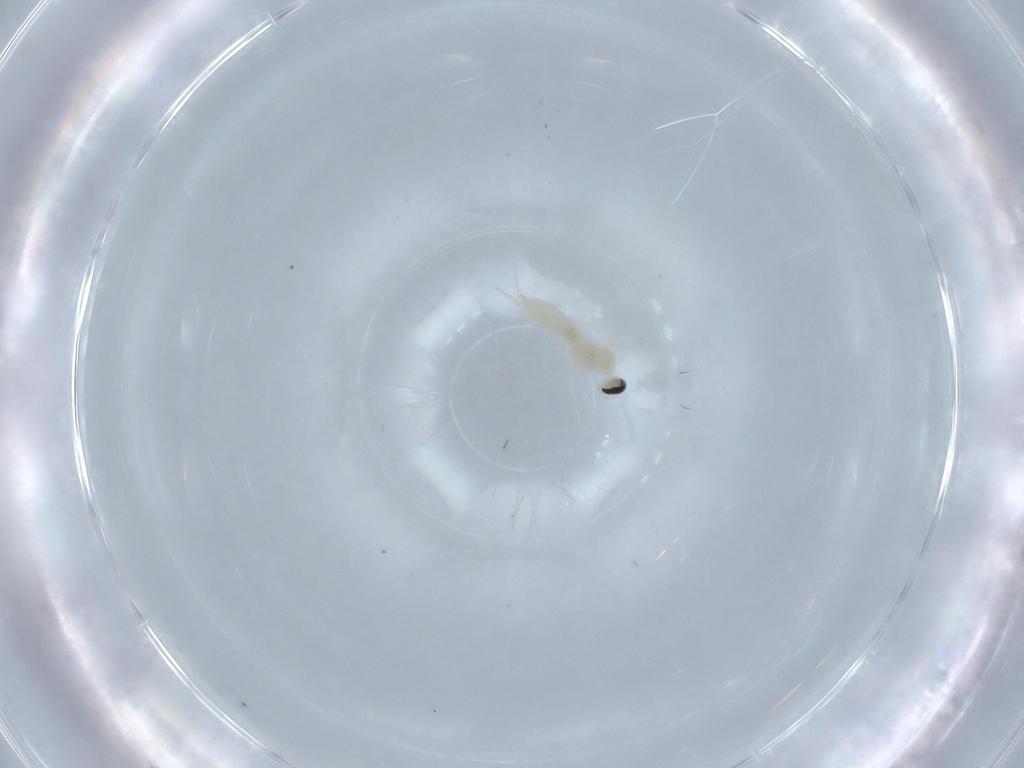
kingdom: Animalia
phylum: Arthropoda
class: Insecta
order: Diptera
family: Cecidomyiidae
